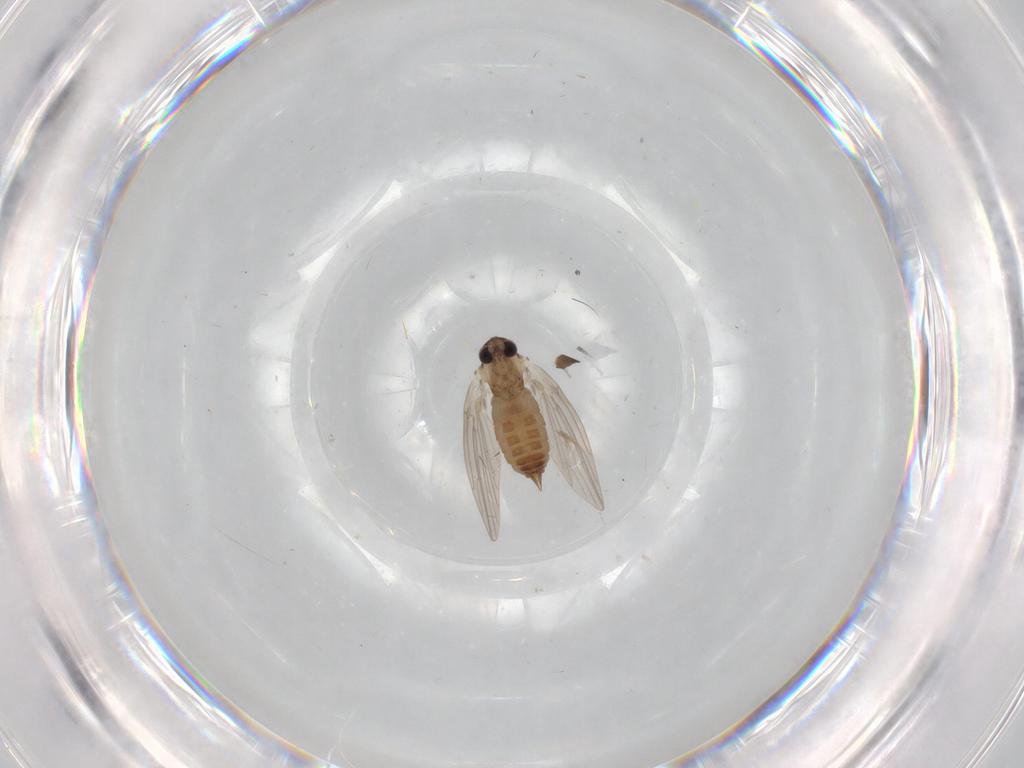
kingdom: Animalia
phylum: Arthropoda
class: Insecta
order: Diptera
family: Psychodidae
